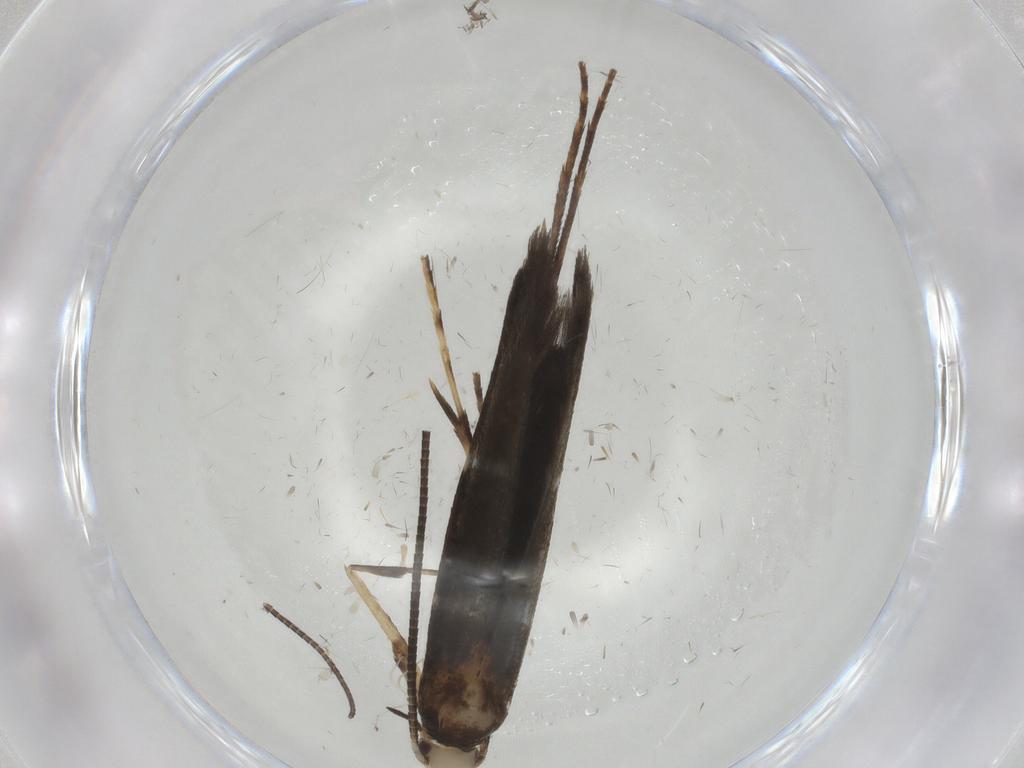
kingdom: Animalia
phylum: Arthropoda
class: Insecta
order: Lepidoptera
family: Gracillariidae
